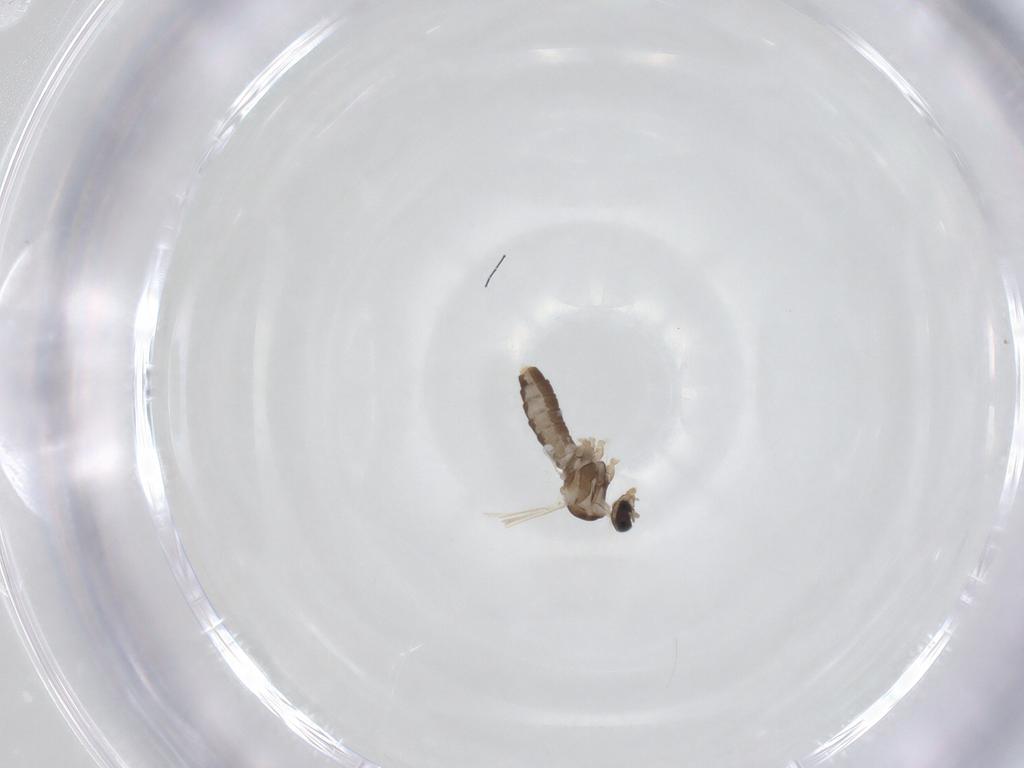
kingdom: Animalia
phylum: Arthropoda
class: Insecta
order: Diptera
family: Cecidomyiidae
